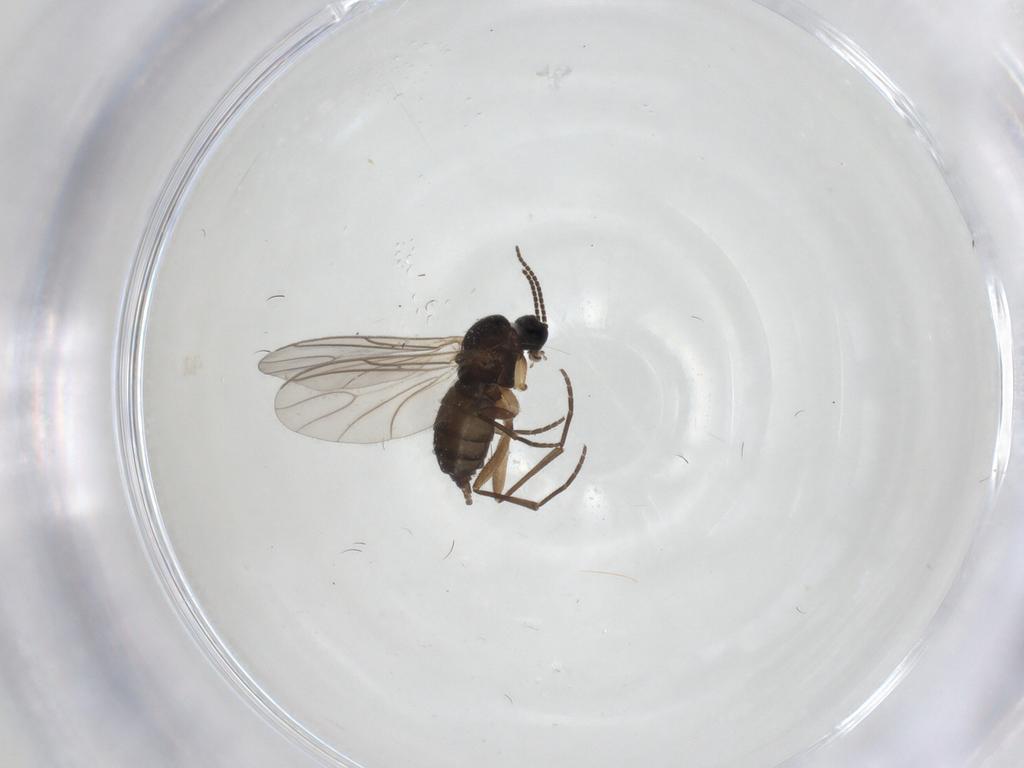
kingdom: Animalia
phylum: Arthropoda
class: Insecta
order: Diptera
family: Sciaridae
